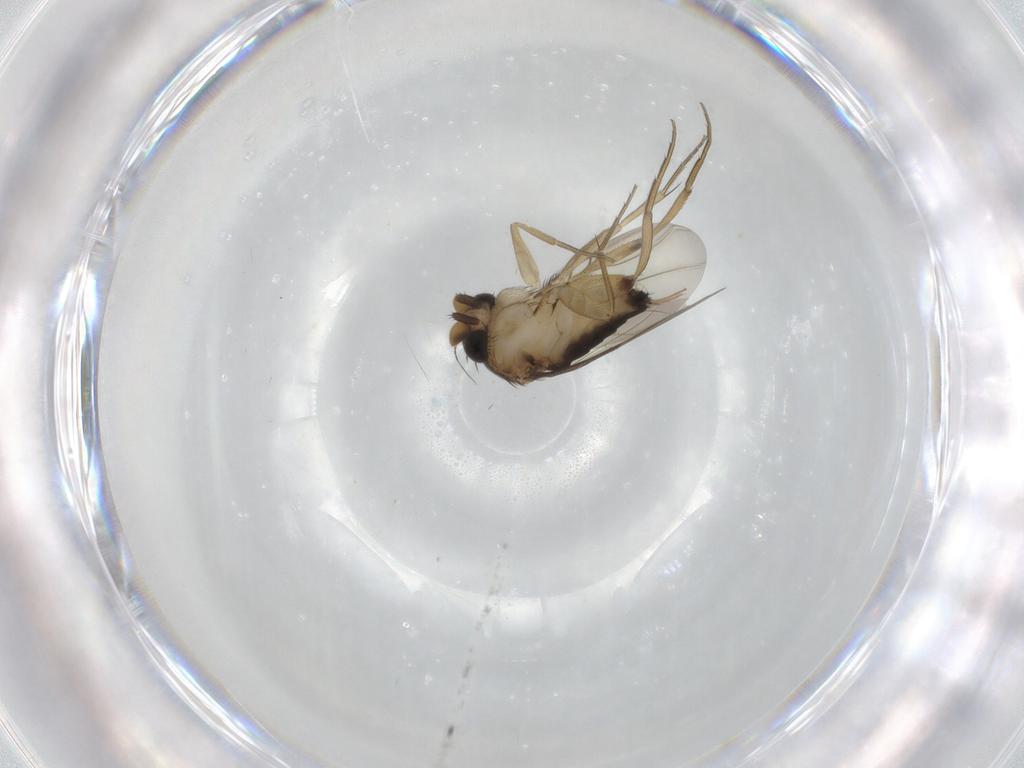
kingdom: Animalia
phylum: Arthropoda
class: Insecta
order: Diptera
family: Phoridae
